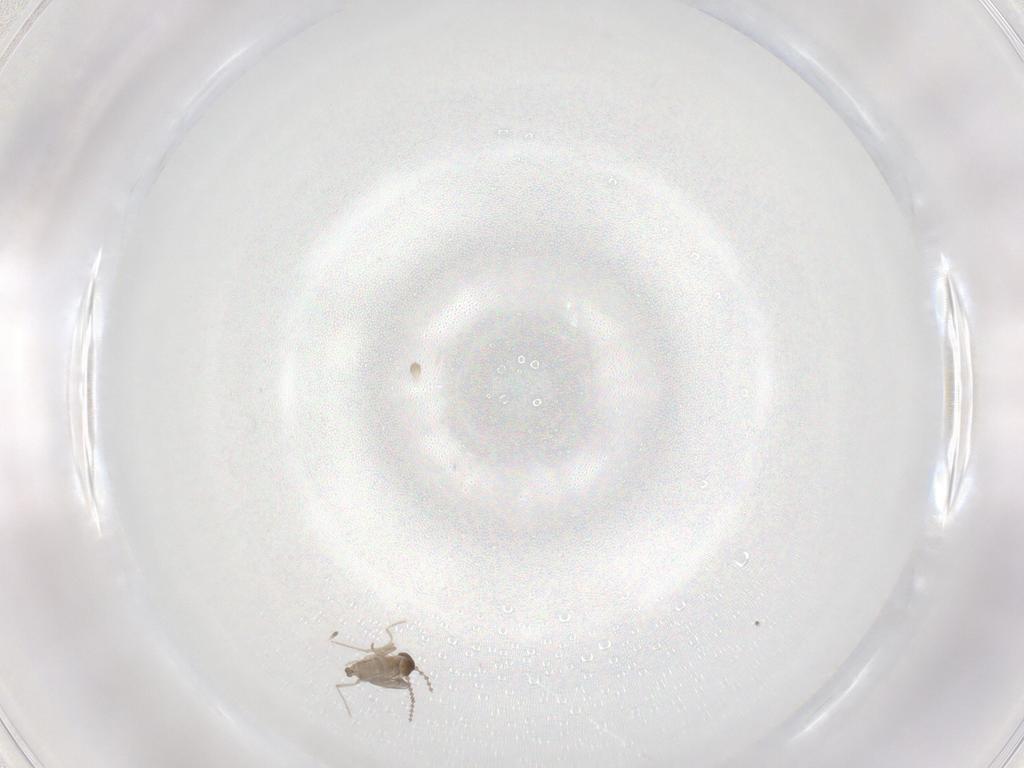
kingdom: Animalia
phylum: Arthropoda
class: Insecta
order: Diptera
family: Cecidomyiidae
